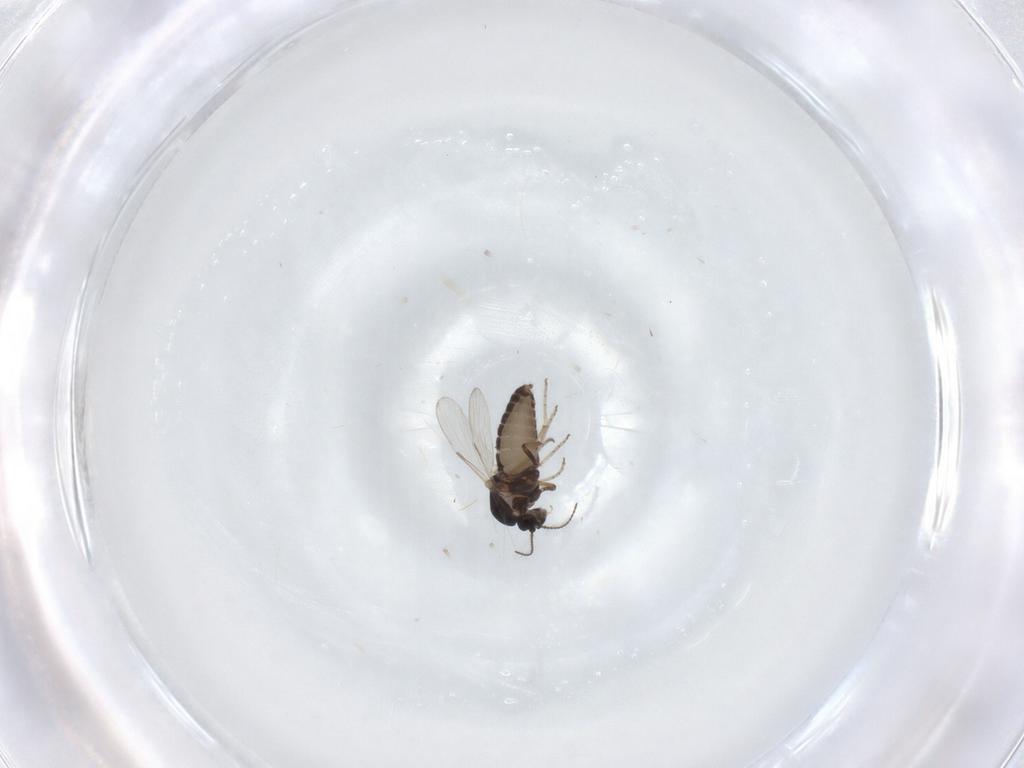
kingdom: Animalia
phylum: Arthropoda
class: Insecta
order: Diptera
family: Ceratopogonidae
